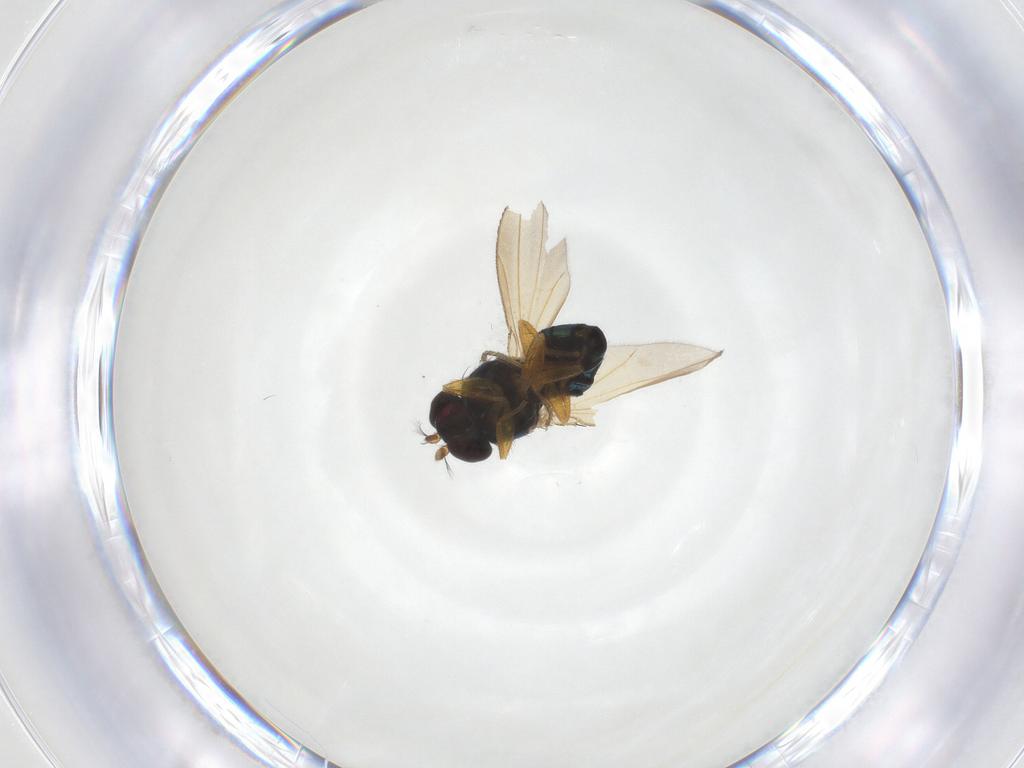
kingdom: Animalia
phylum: Arthropoda
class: Insecta
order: Diptera
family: Ephydridae
